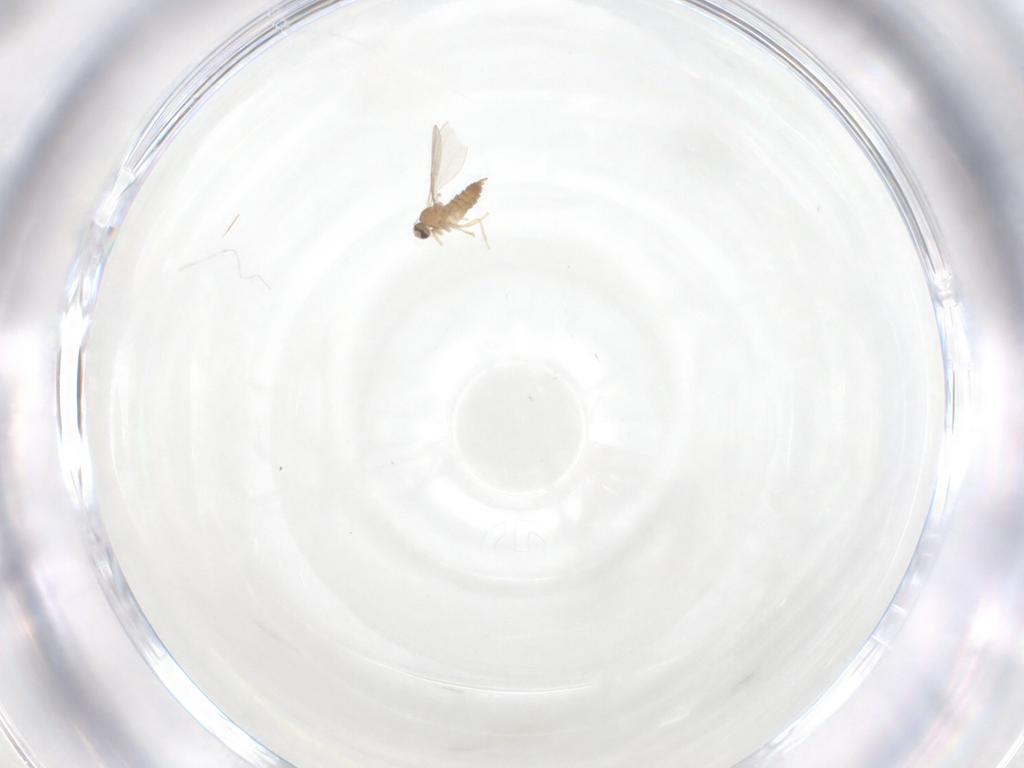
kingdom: Animalia
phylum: Arthropoda
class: Insecta
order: Diptera
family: Cecidomyiidae
